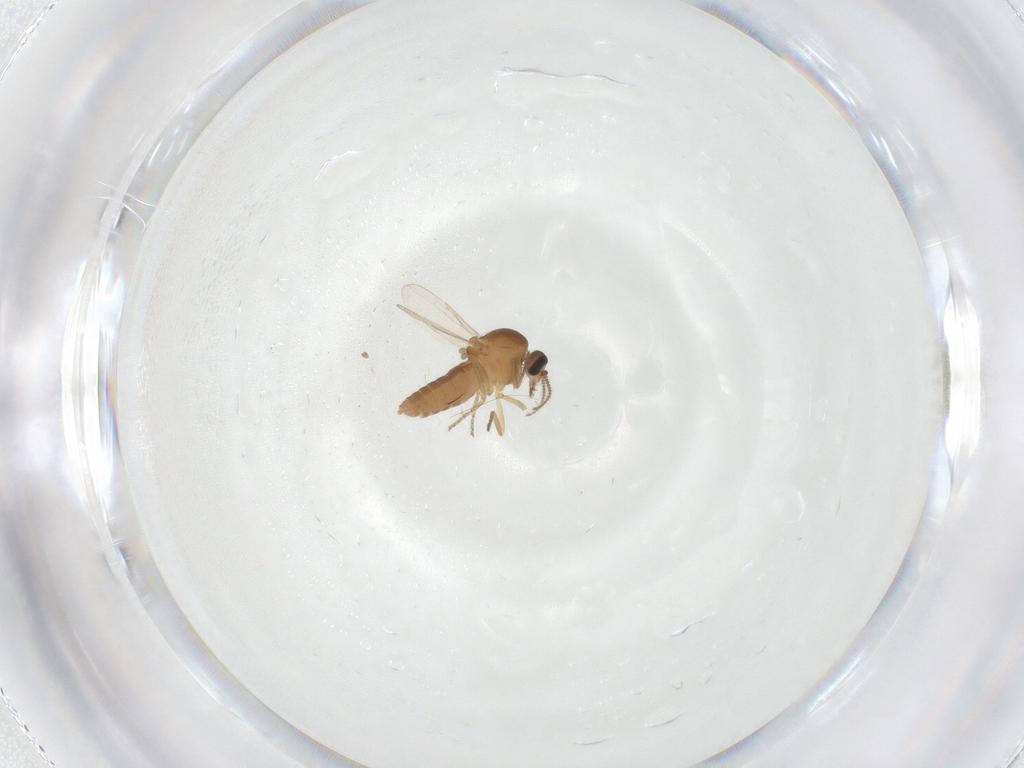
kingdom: Animalia
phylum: Arthropoda
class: Insecta
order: Diptera
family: Ceratopogonidae
